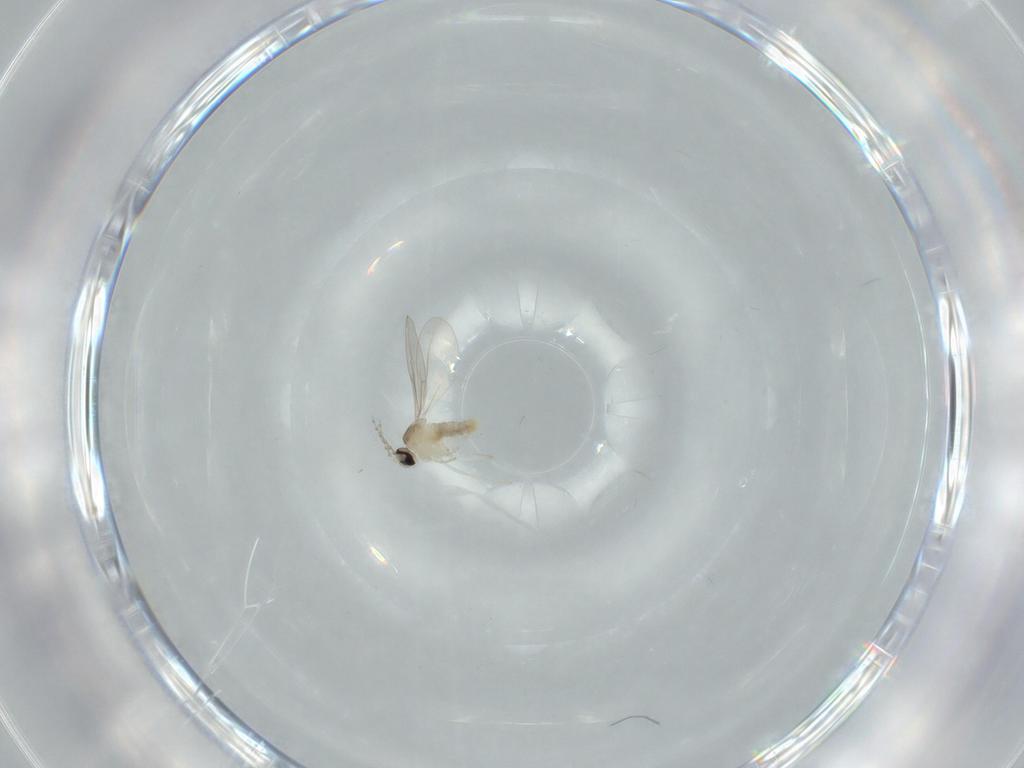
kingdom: Animalia
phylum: Arthropoda
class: Insecta
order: Diptera
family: Cecidomyiidae
